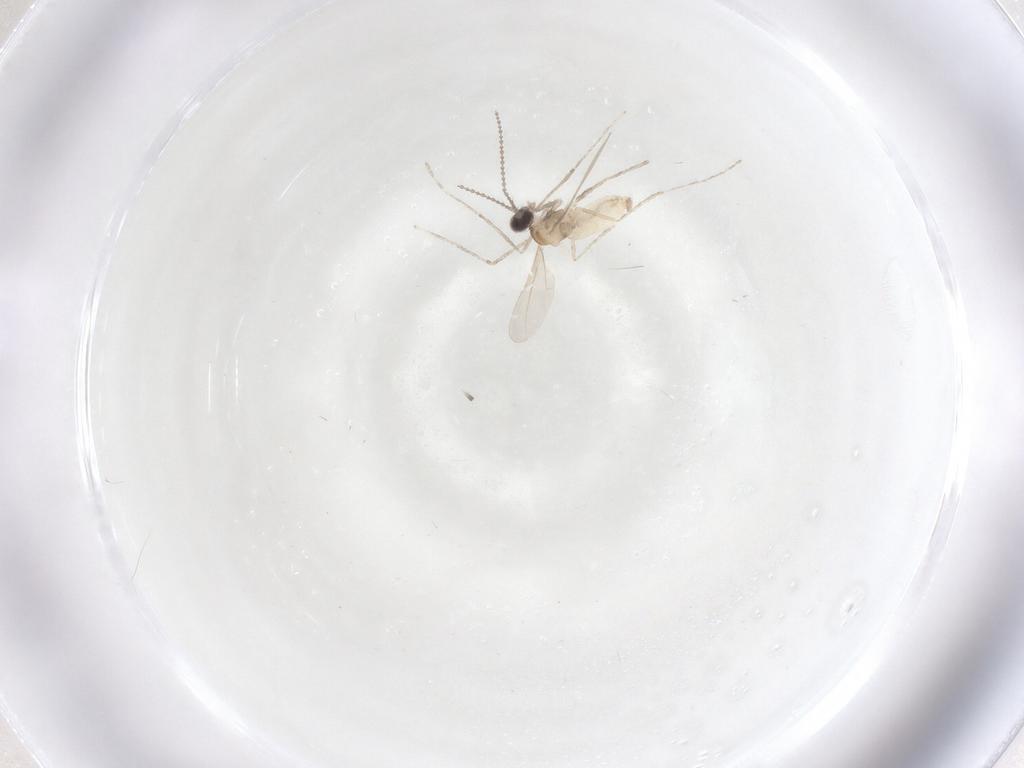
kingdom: Animalia
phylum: Arthropoda
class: Insecta
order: Diptera
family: Cecidomyiidae
